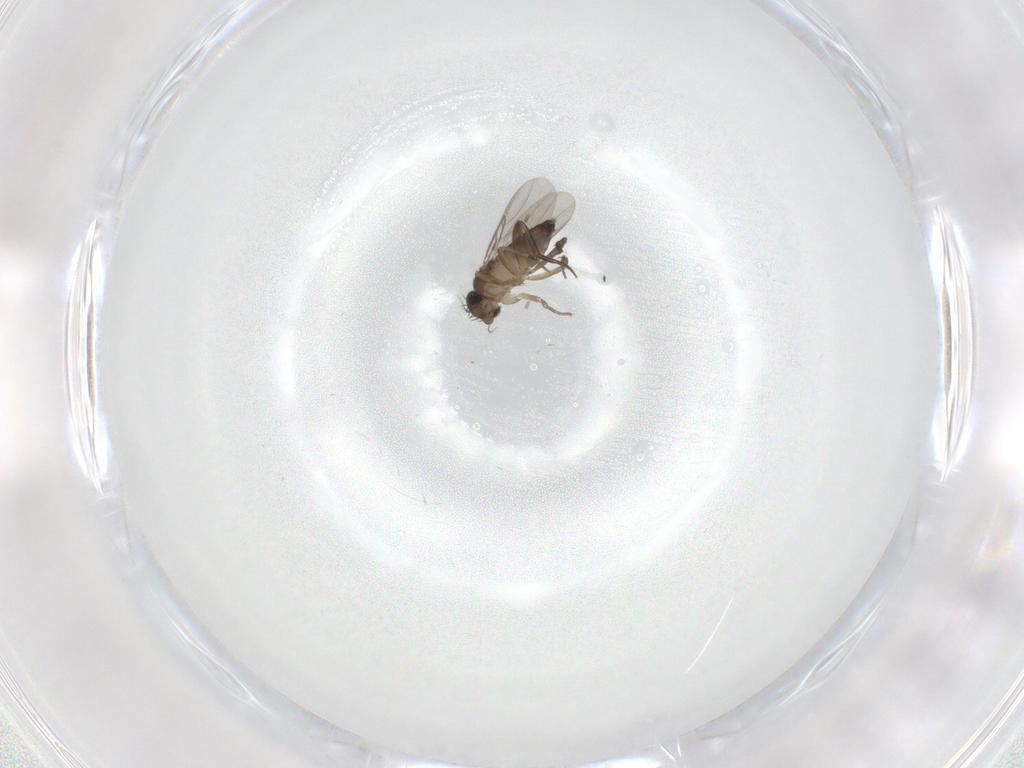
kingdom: Animalia
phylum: Arthropoda
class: Insecta
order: Diptera
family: Phoridae
